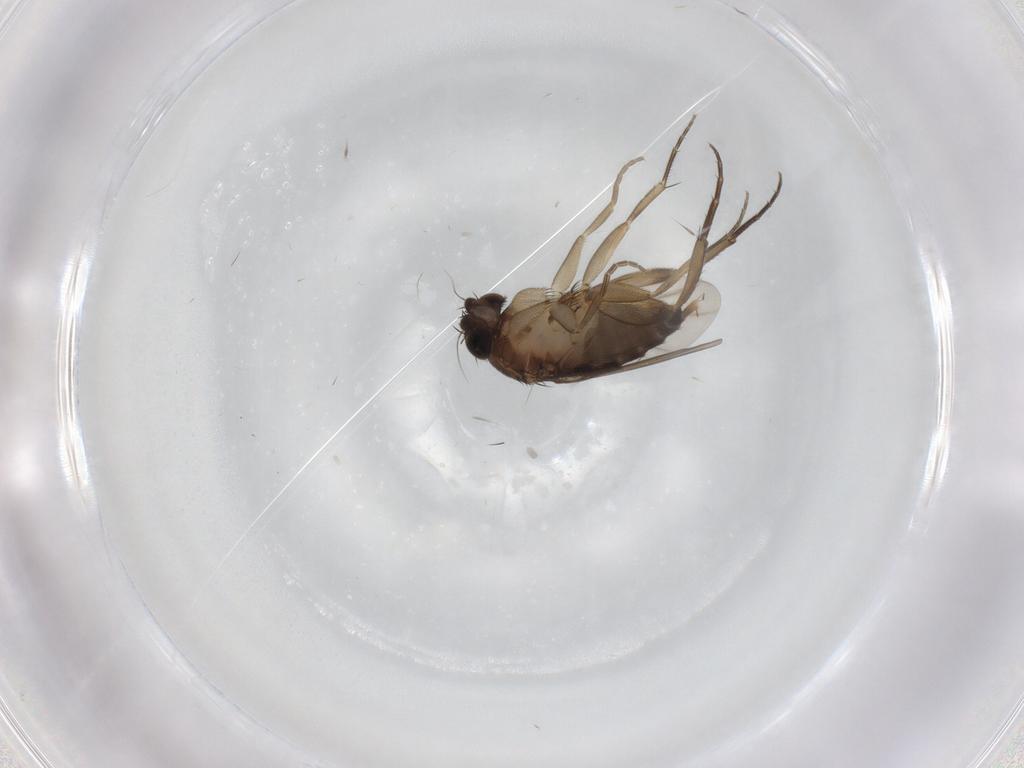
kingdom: Animalia
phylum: Arthropoda
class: Insecta
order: Diptera
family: Phoridae
